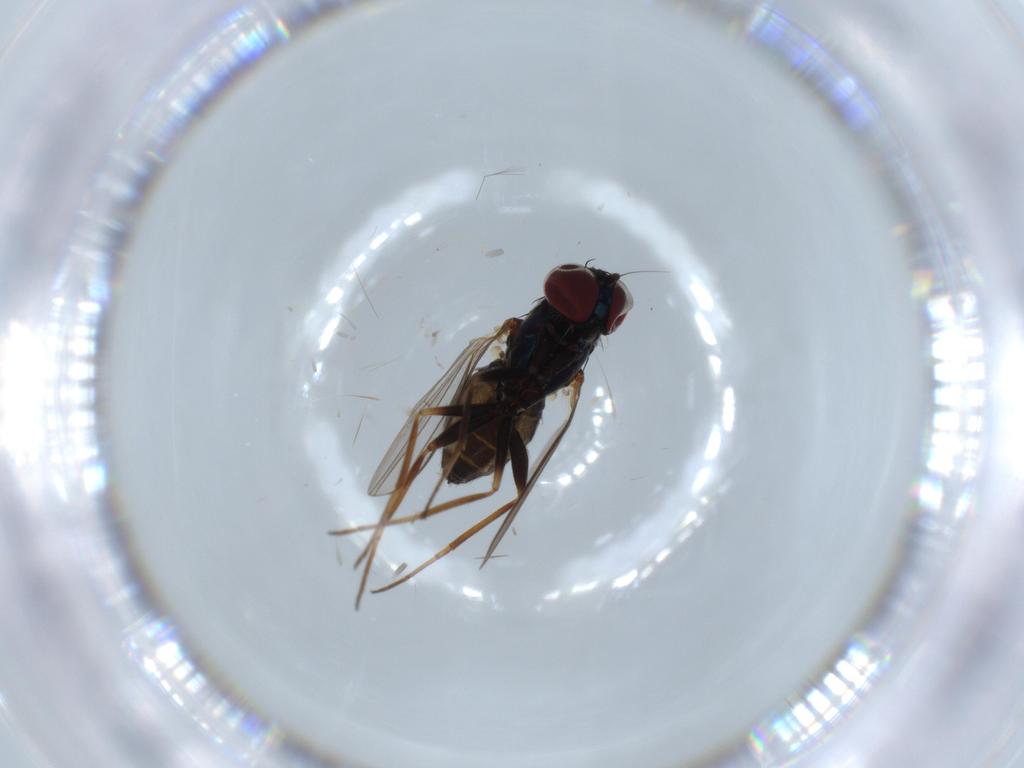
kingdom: Animalia
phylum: Arthropoda
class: Insecta
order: Diptera
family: Dolichopodidae
